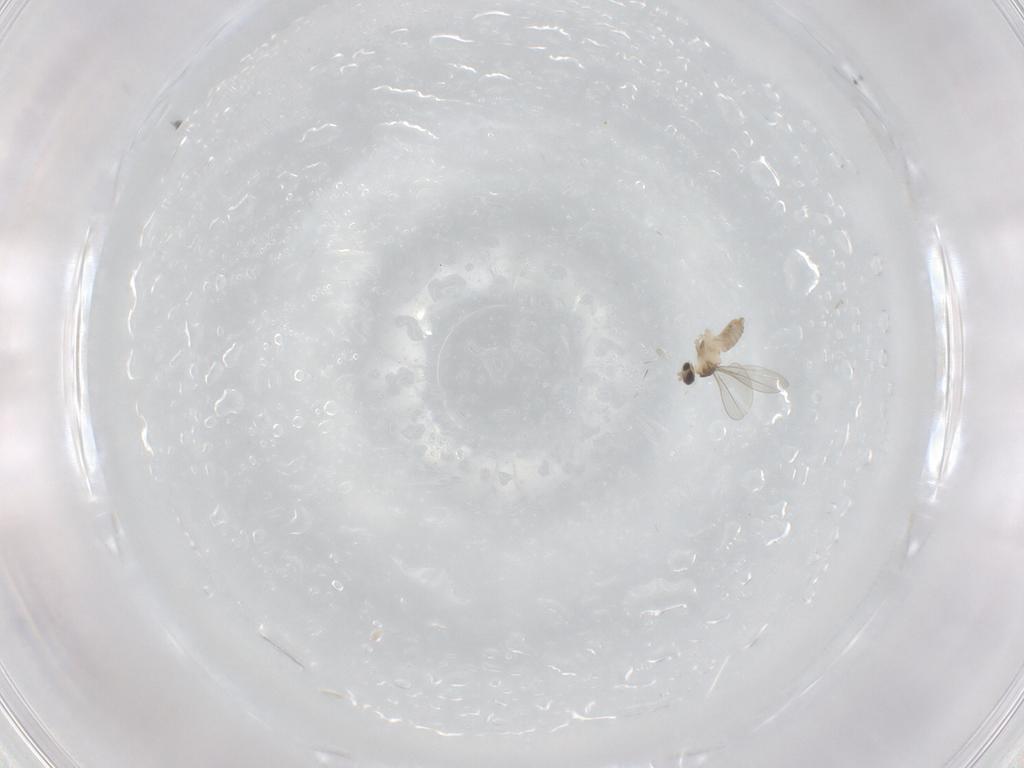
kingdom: Animalia
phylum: Arthropoda
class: Insecta
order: Diptera
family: Cecidomyiidae
